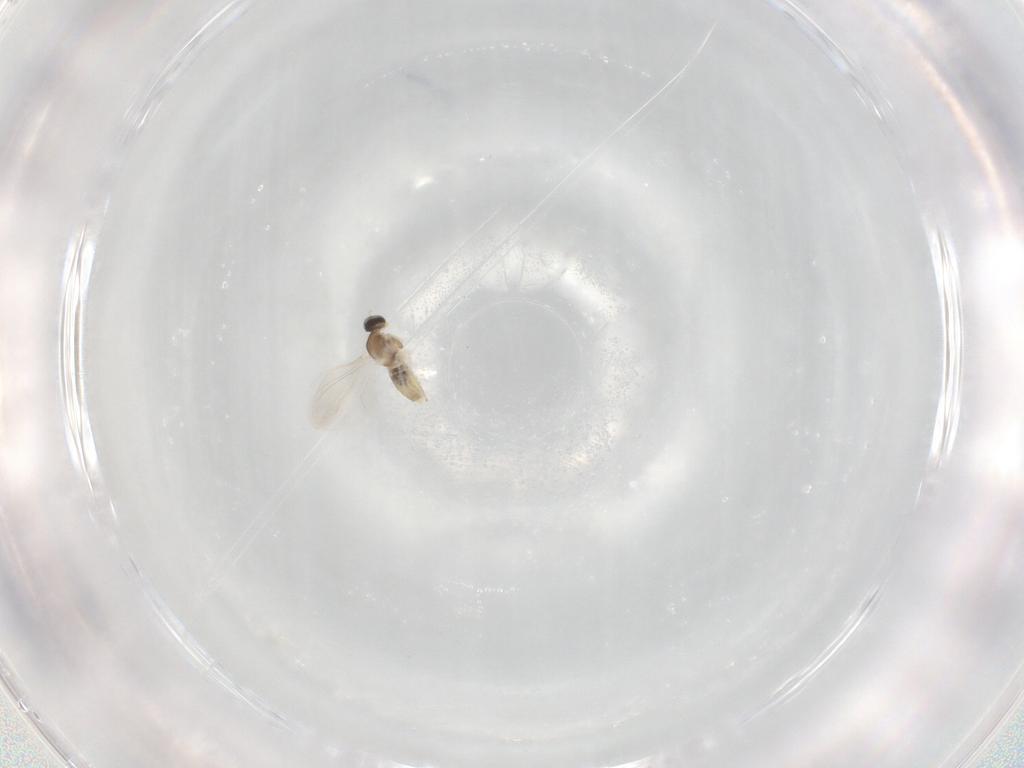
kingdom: Animalia
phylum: Arthropoda
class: Insecta
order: Diptera
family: Cecidomyiidae
